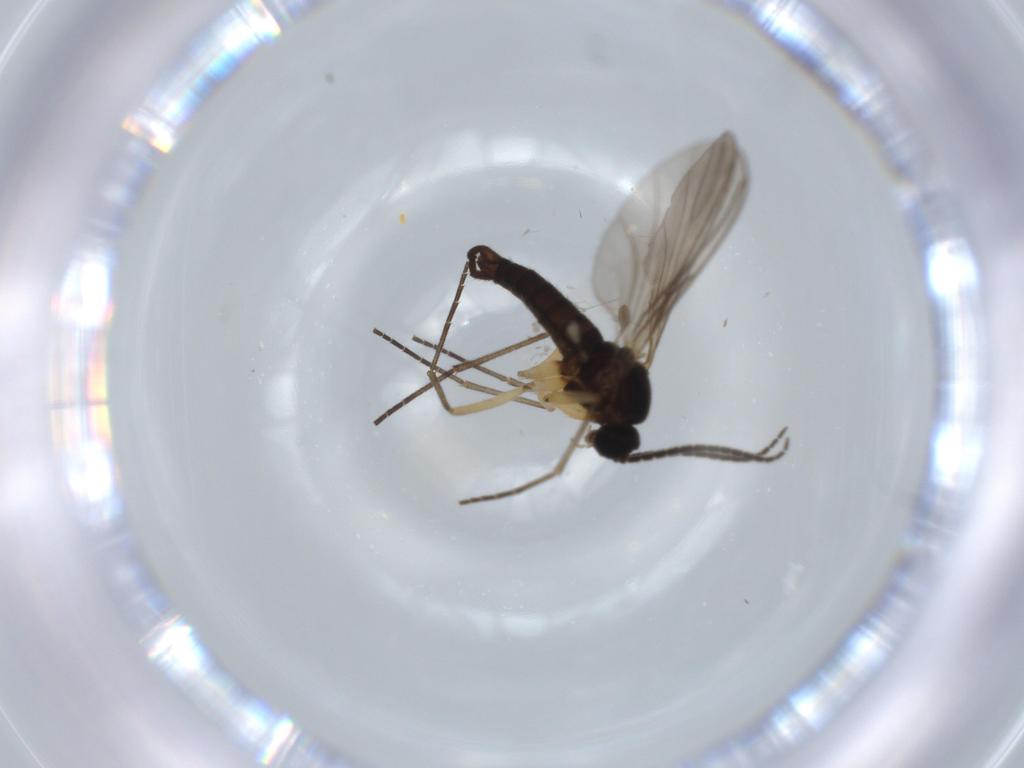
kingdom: Animalia
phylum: Arthropoda
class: Insecta
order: Diptera
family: Sciaridae
